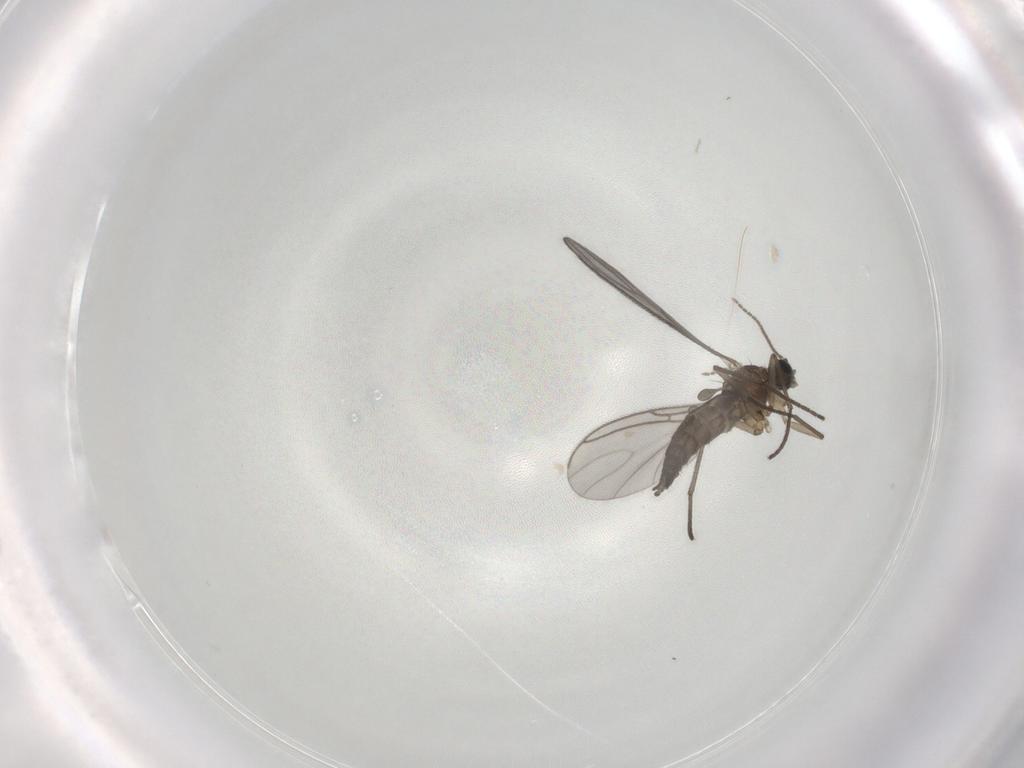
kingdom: Animalia
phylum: Arthropoda
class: Insecta
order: Diptera
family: Sciaridae
